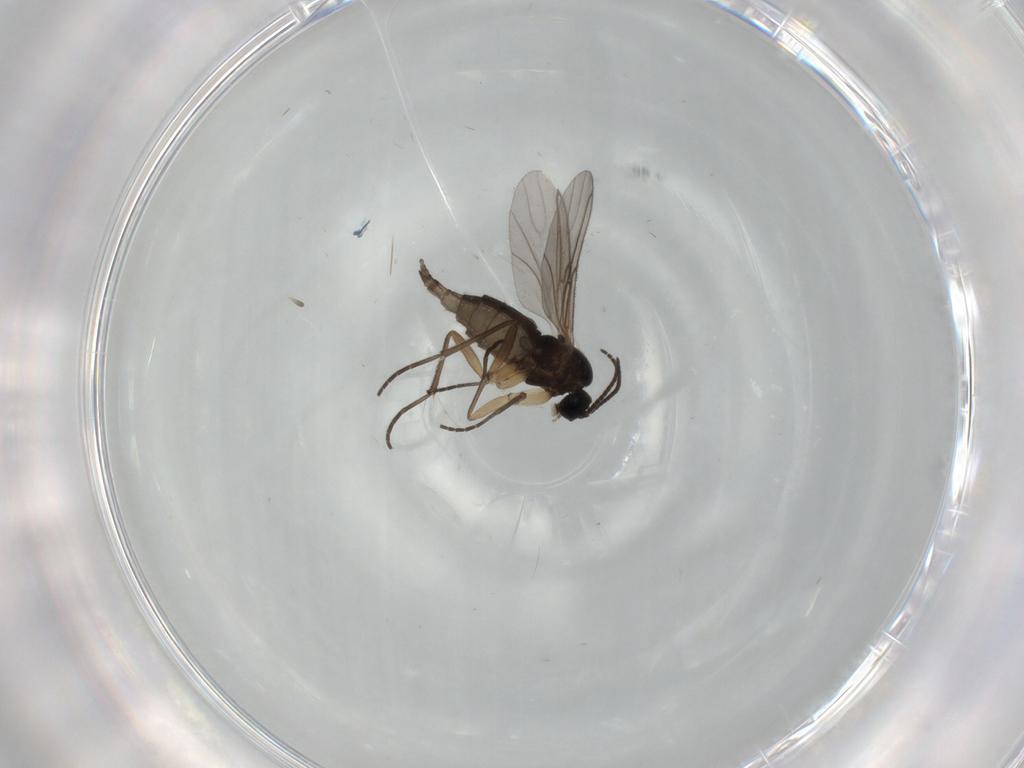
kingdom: Animalia
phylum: Arthropoda
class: Insecta
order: Diptera
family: Sciaridae
